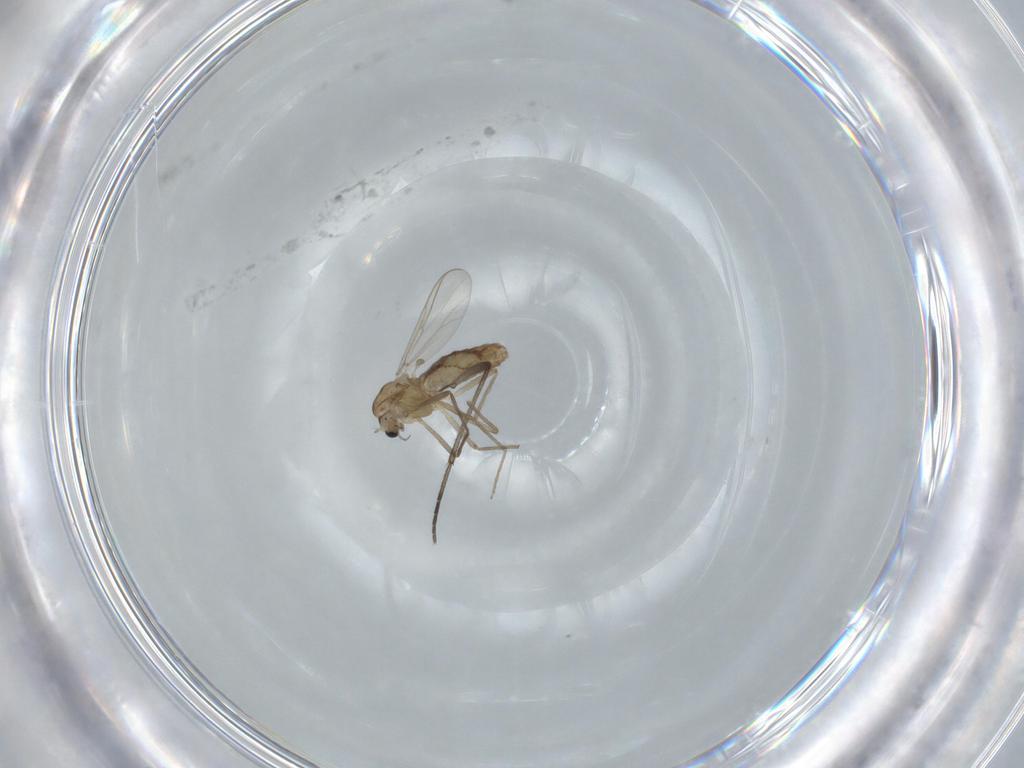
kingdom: Animalia
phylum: Arthropoda
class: Insecta
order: Diptera
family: Chironomidae
